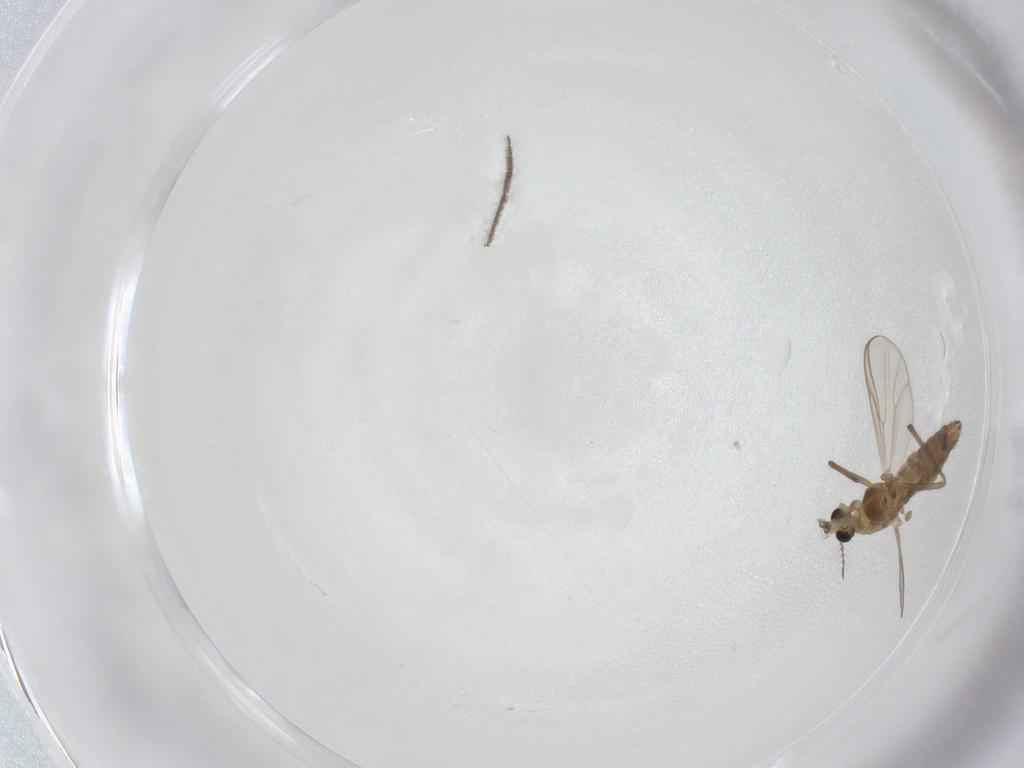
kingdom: Animalia
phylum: Arthropoda
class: Insecta
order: Diptera
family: Chironomidae
